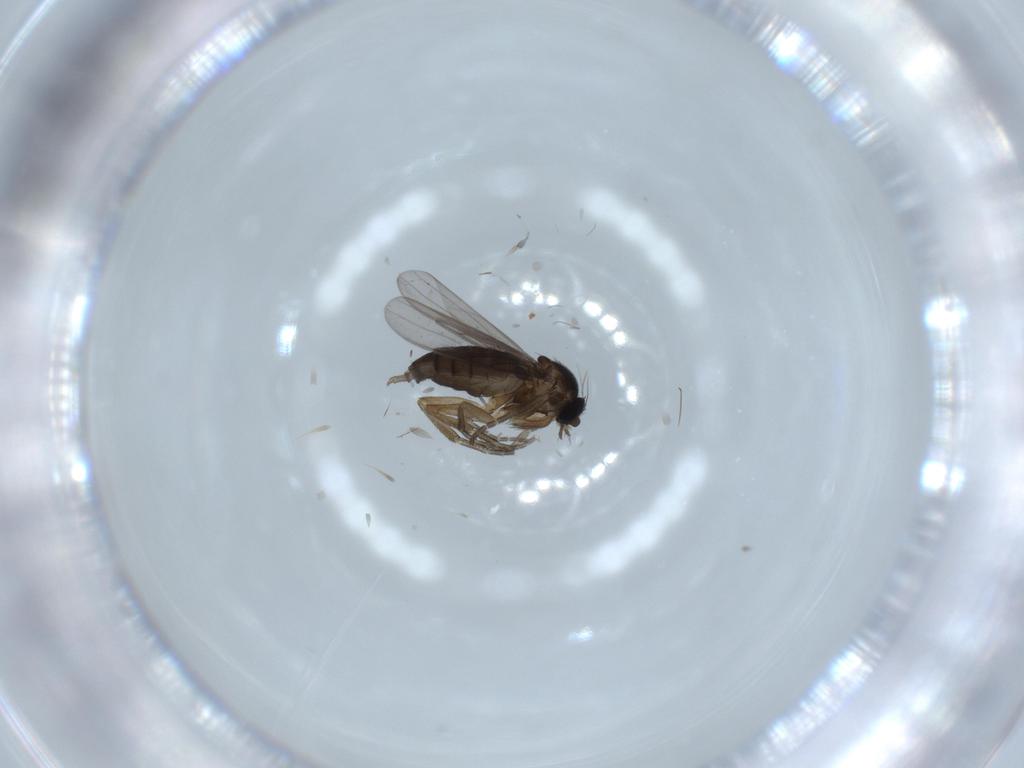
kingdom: Animalia
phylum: Arthropoda
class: Insecta
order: Diptera
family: Phoridae
